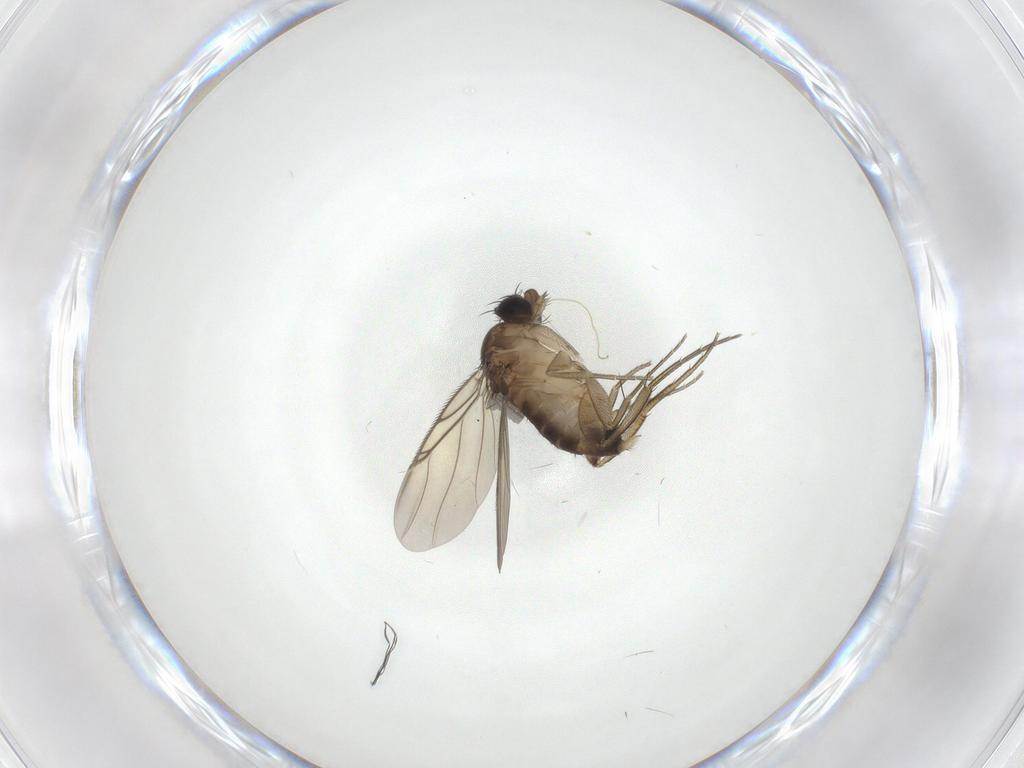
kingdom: Animalia
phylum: Arthropoda
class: Insecta
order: Diptera
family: Phoridae
